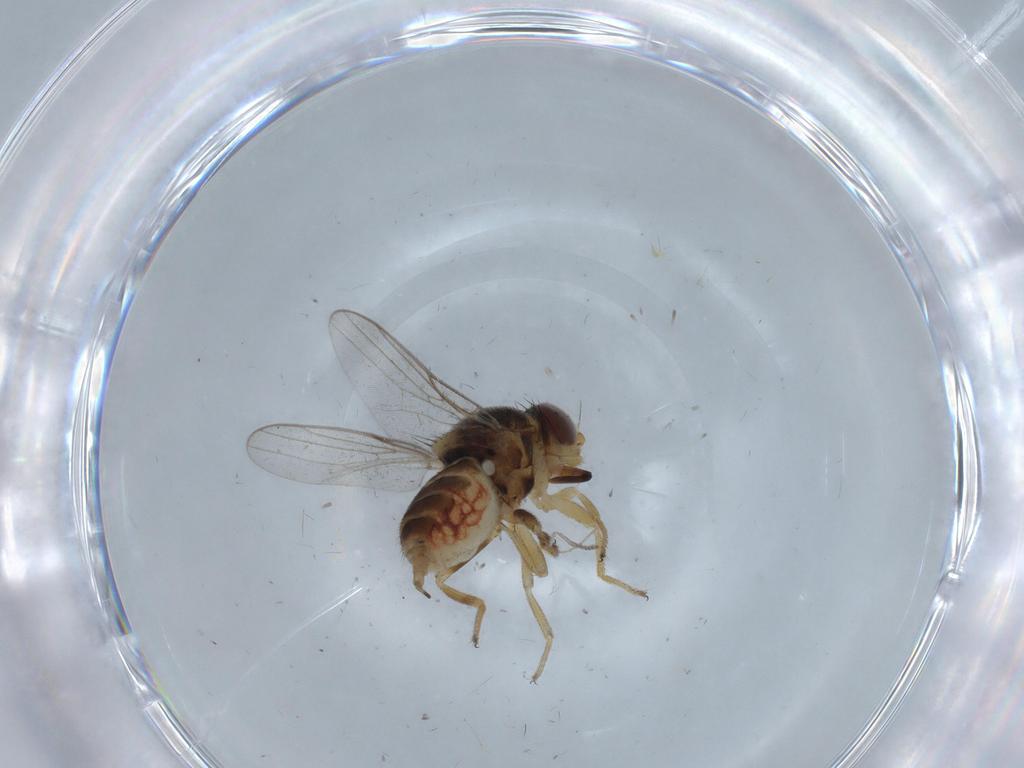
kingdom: Animalia
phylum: Arthropoda
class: Insecta
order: Diptera
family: Chloropidae
